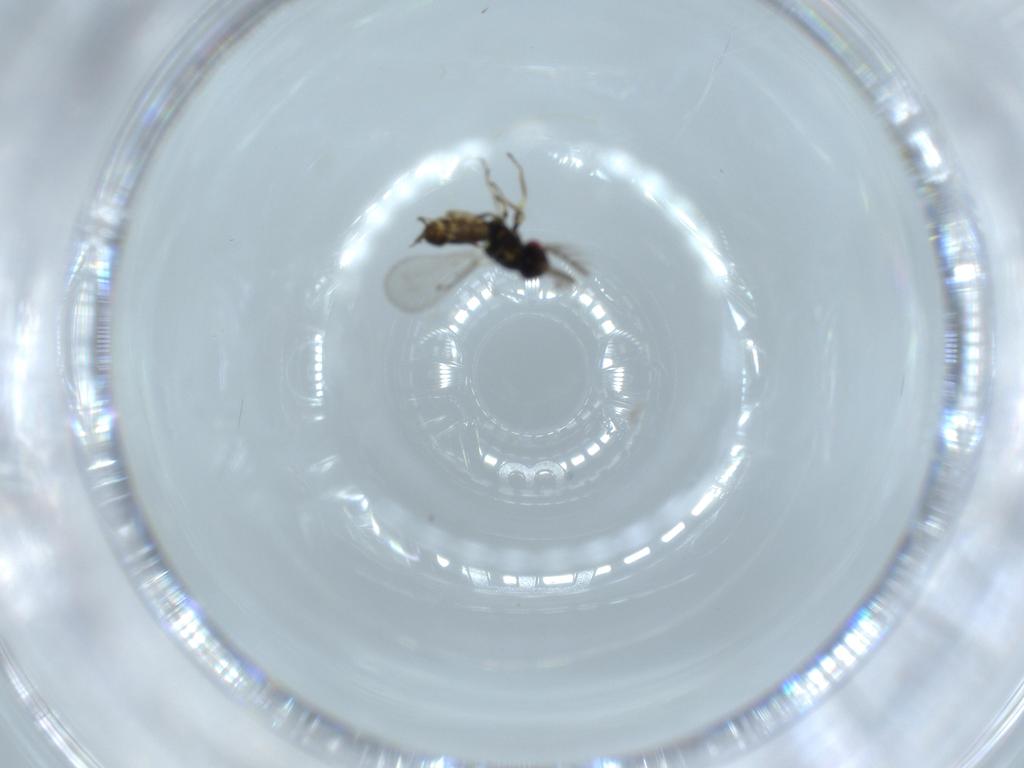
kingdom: Animalia
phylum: Arthropoda
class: Insecta
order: Hymenoptera
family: Eulophidae
